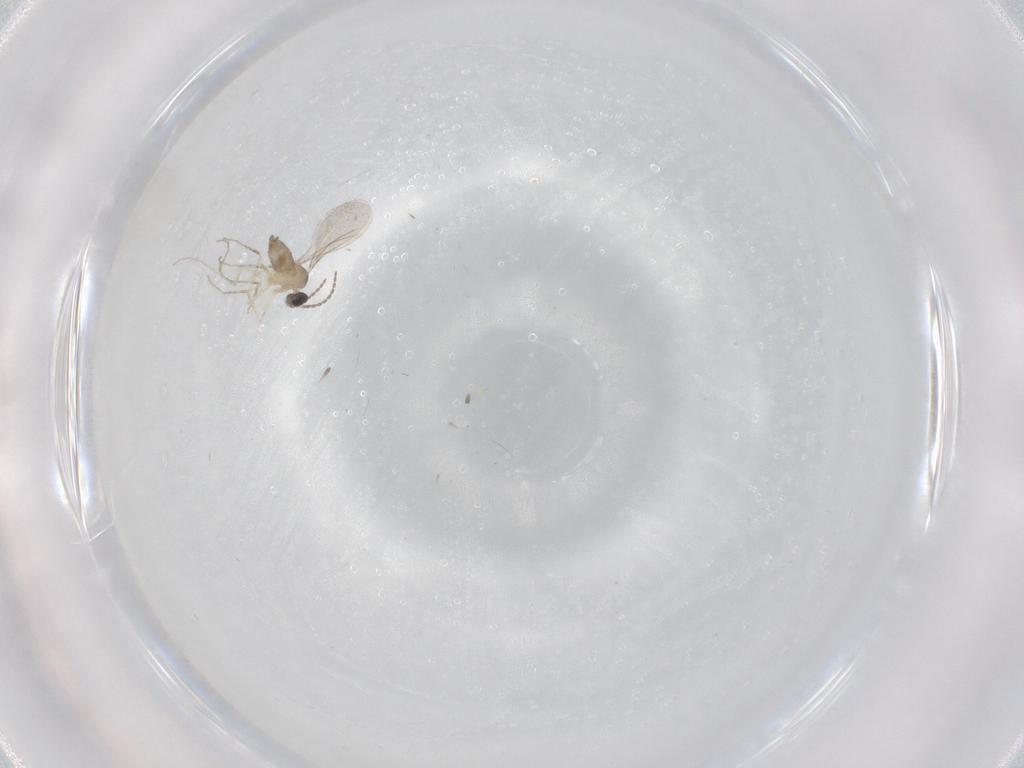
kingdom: Animalia
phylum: Arthropoda
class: Insecta
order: Diptera
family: Cecidomyiidae
